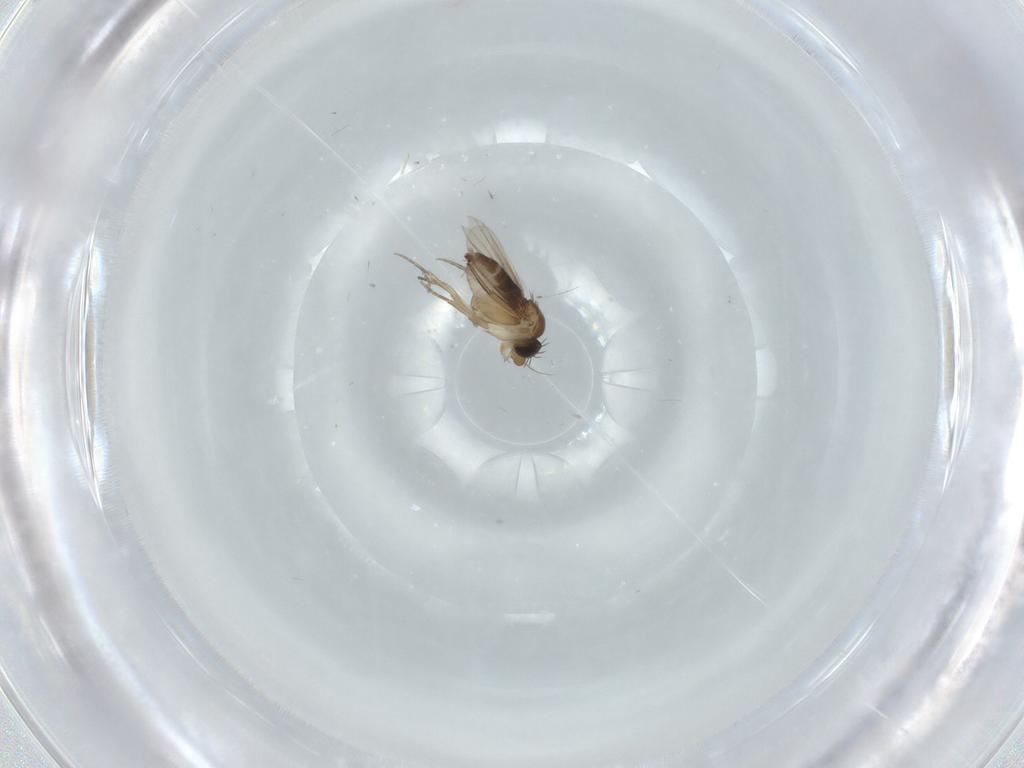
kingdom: Animalia
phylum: Arthropoda
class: Insecta
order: Diptera
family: Phoridae
